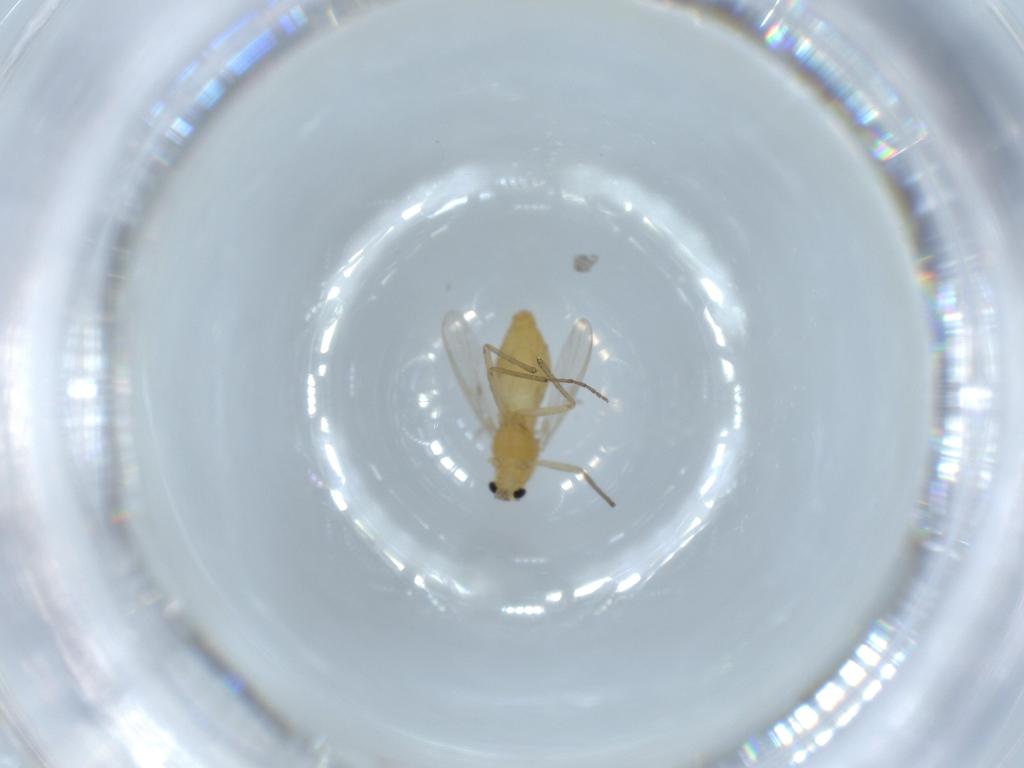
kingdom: Animalia
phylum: Arthropoda
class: Insecta
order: Diptera
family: Chironomidae
